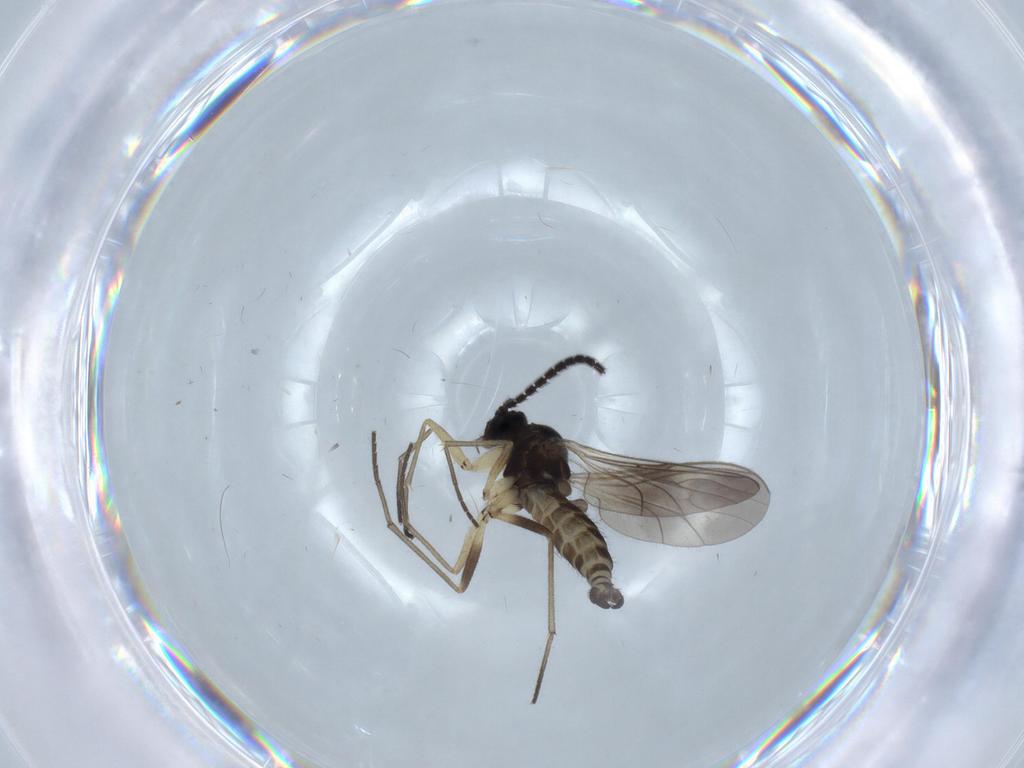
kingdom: Animalia
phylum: Arthropoda
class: Insecta
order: Diptera
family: Sciaridae
